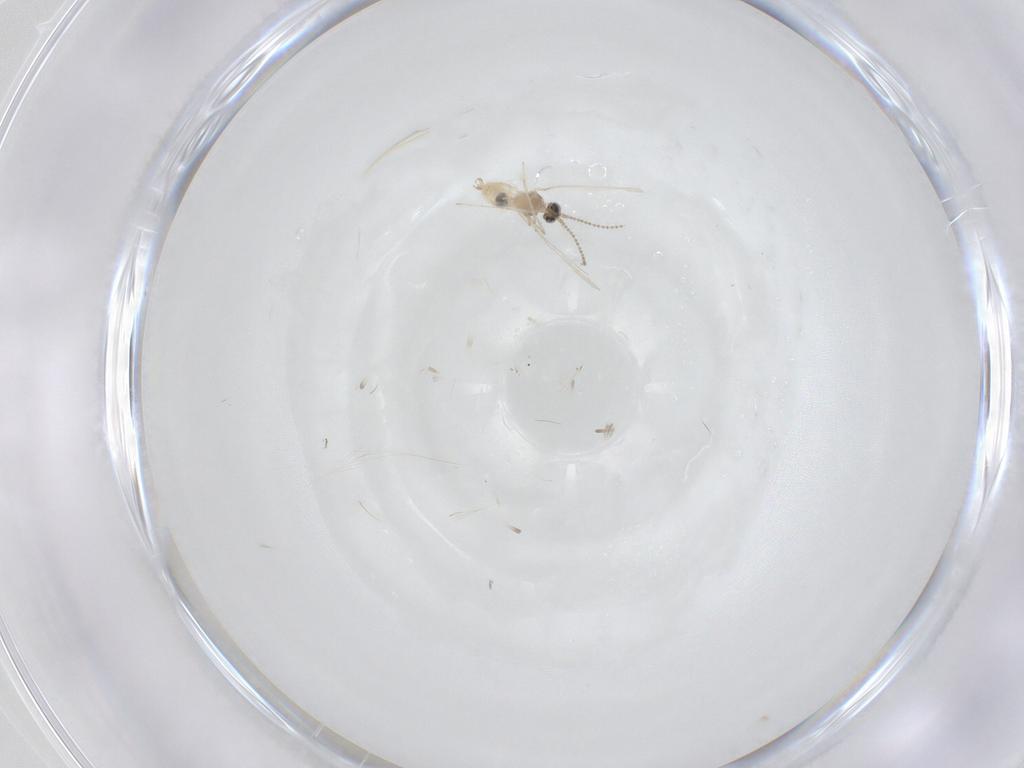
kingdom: Animalia
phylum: Arthropoda
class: Insecta
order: Diptera
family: Cecidomyiidae
